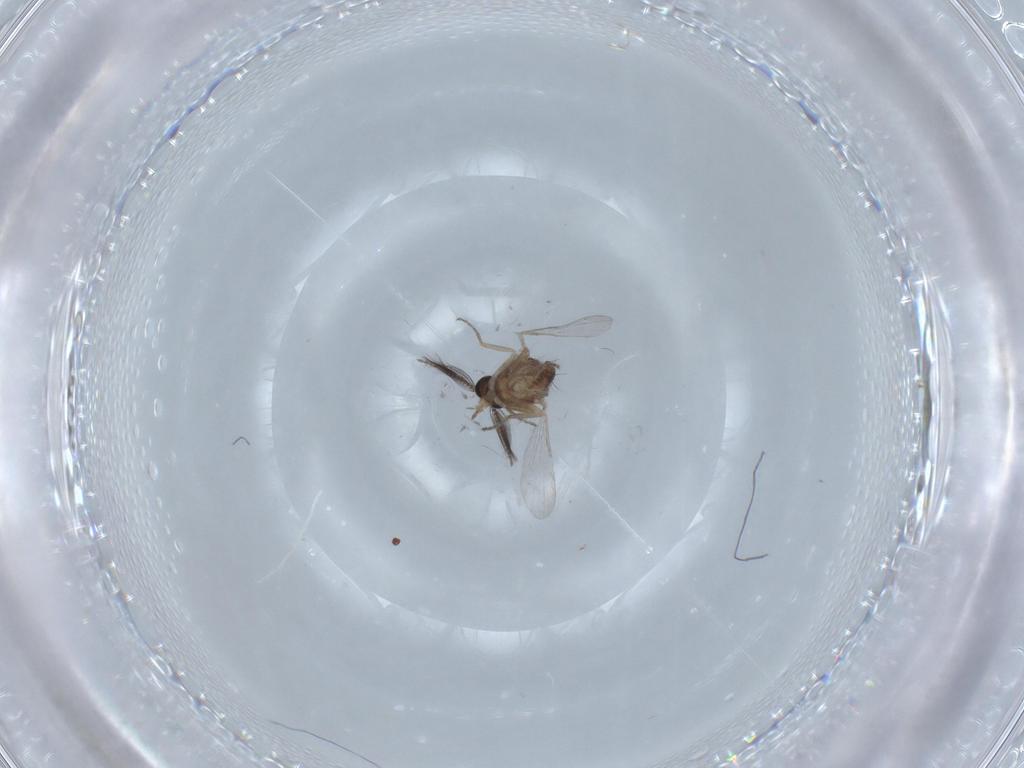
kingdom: Animalia
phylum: Arthropoda
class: Insecta
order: Diptera
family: Ceratopogonidae
